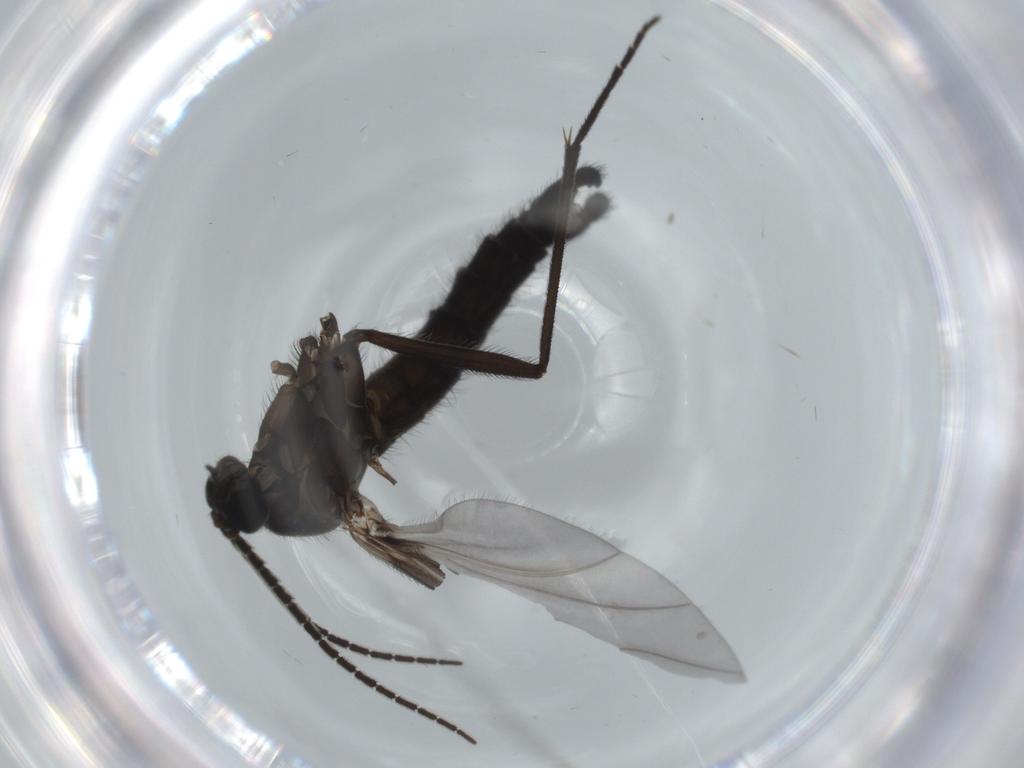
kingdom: Animalia
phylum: Arthropoda
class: Insecta
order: Diptera
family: Sciaridae
